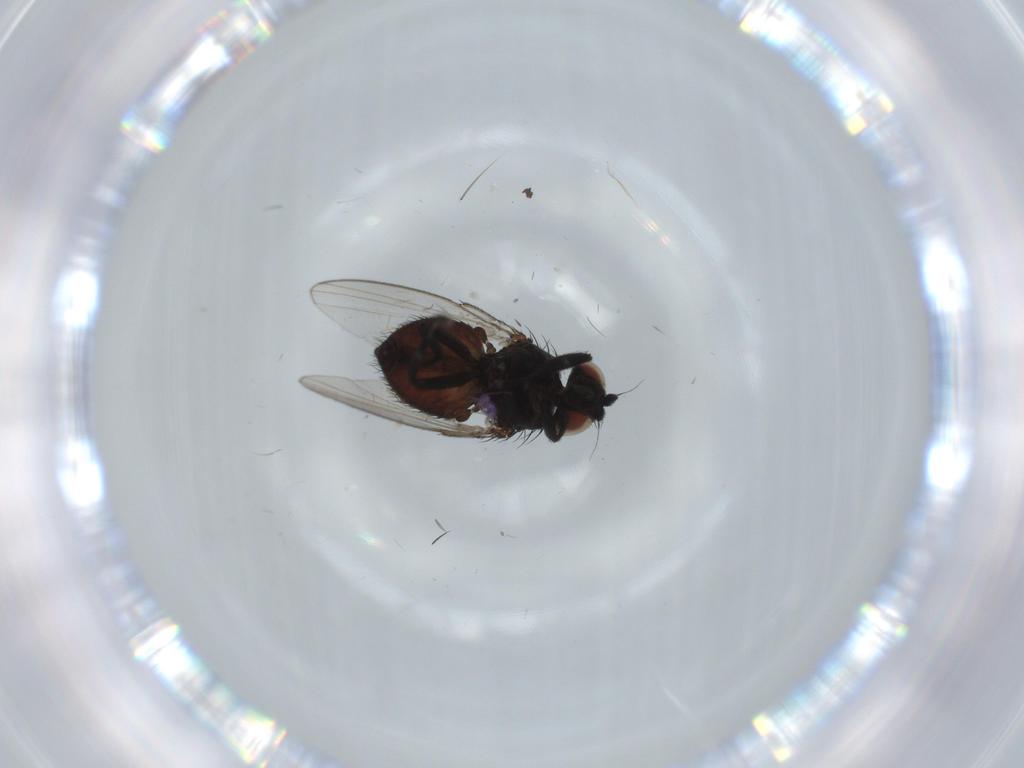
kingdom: Animalia
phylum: Arthropoda
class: Insecta
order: Diptera
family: Milichiidae
